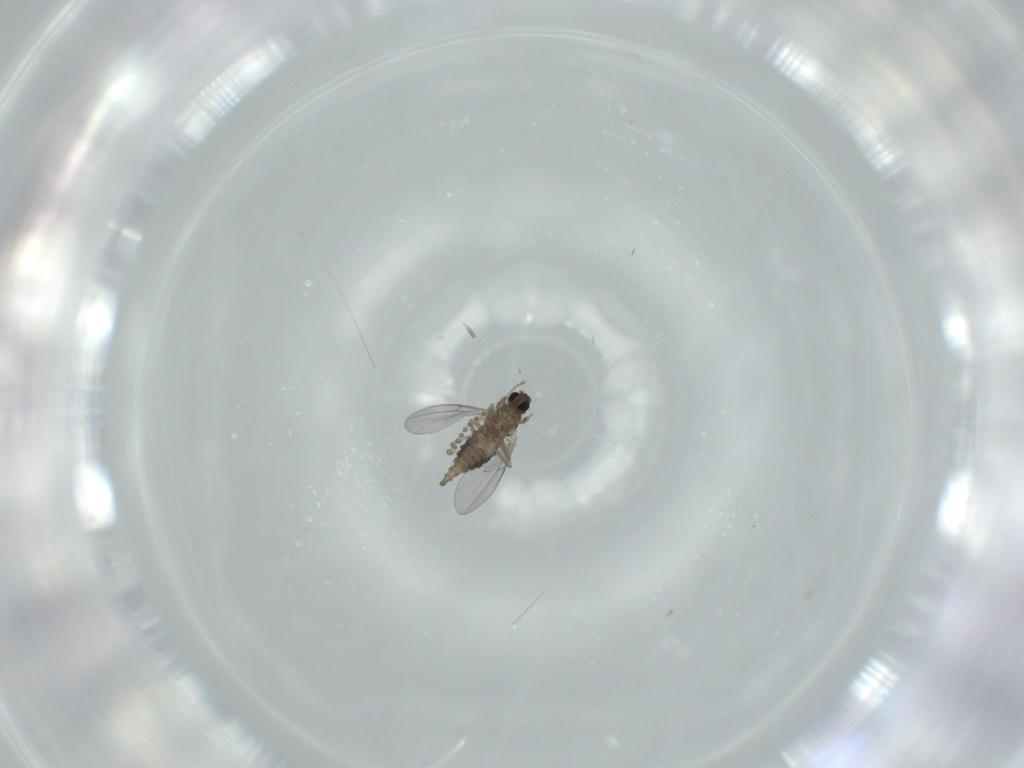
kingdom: Animalia
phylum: Arthropoda
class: Insecta
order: Diptera
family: Cecidomyiidae
